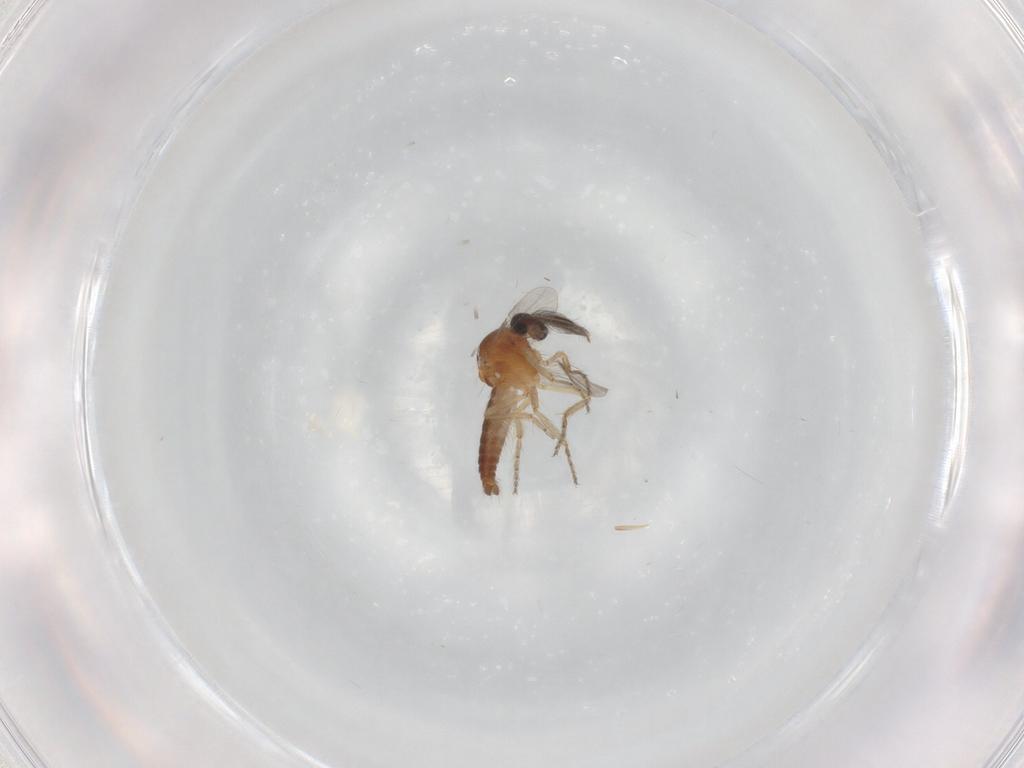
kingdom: Animalia
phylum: Arthropoda
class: Insecta
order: Diptera
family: Ceratopogonidae
